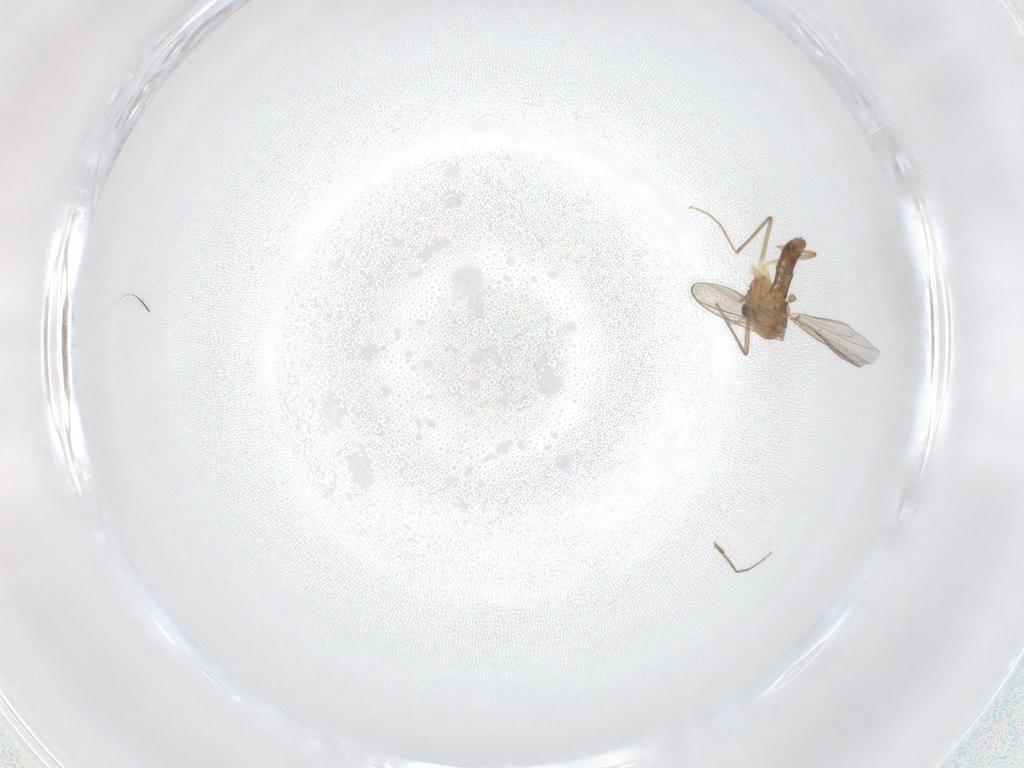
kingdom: Animalia
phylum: Arthropoda
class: Insecta
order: Diptera
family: Chironomidae
